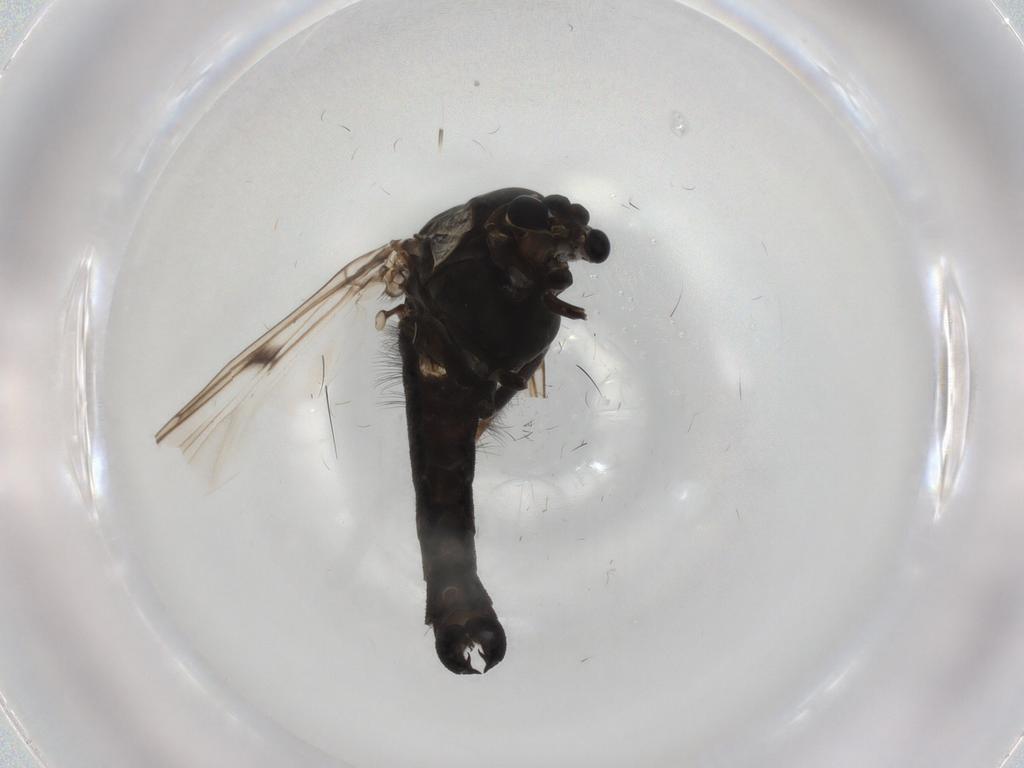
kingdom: Animalia
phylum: Arthropoda
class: Insecta
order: Diptera
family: Chironomidae
